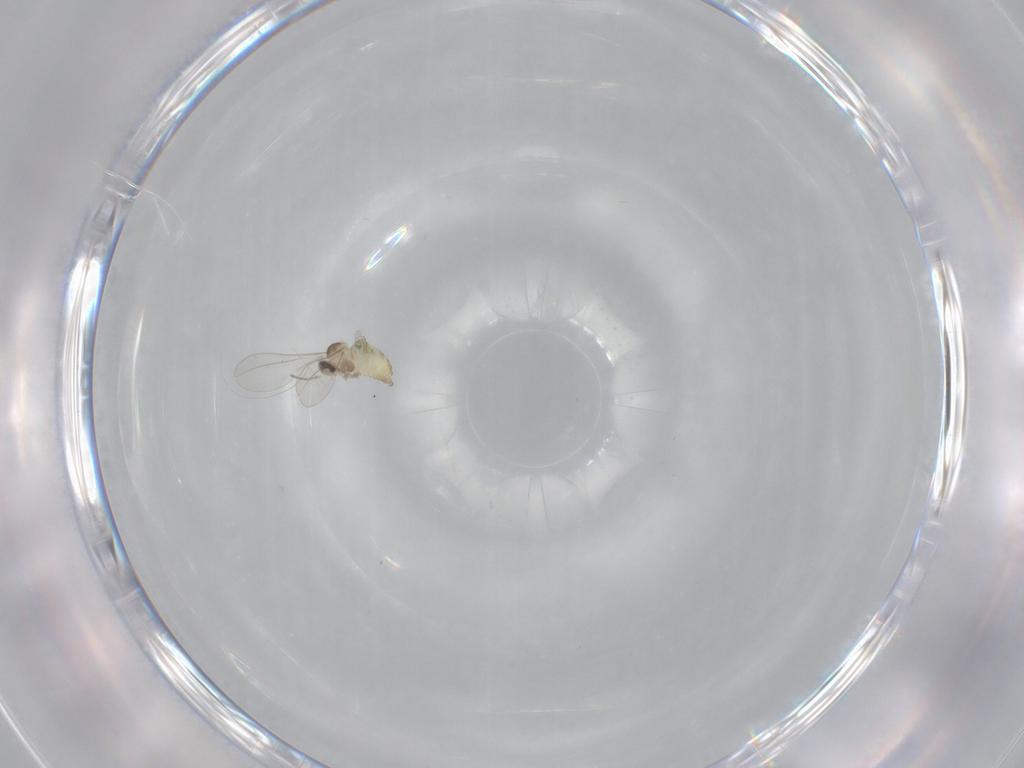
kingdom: Animalia
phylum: Arthropoda
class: Insecta
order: Diptera
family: Cecidomyiidae
